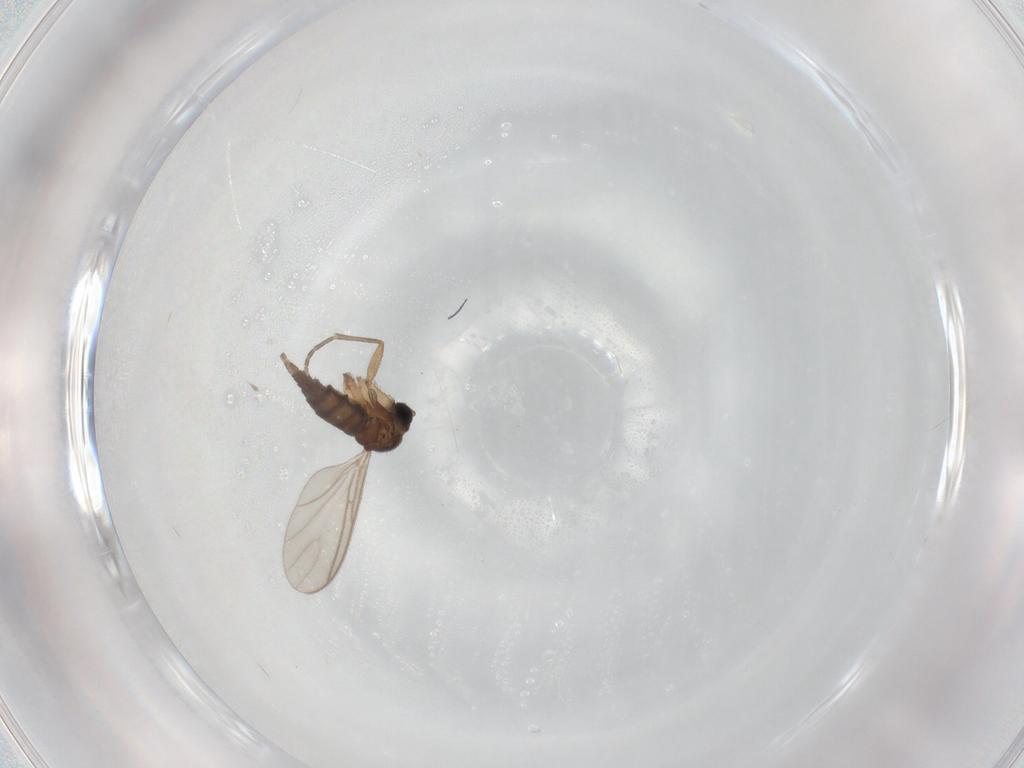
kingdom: Animalia
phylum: Arthropoda
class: Insecta
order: Diptera
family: Sciaridae
